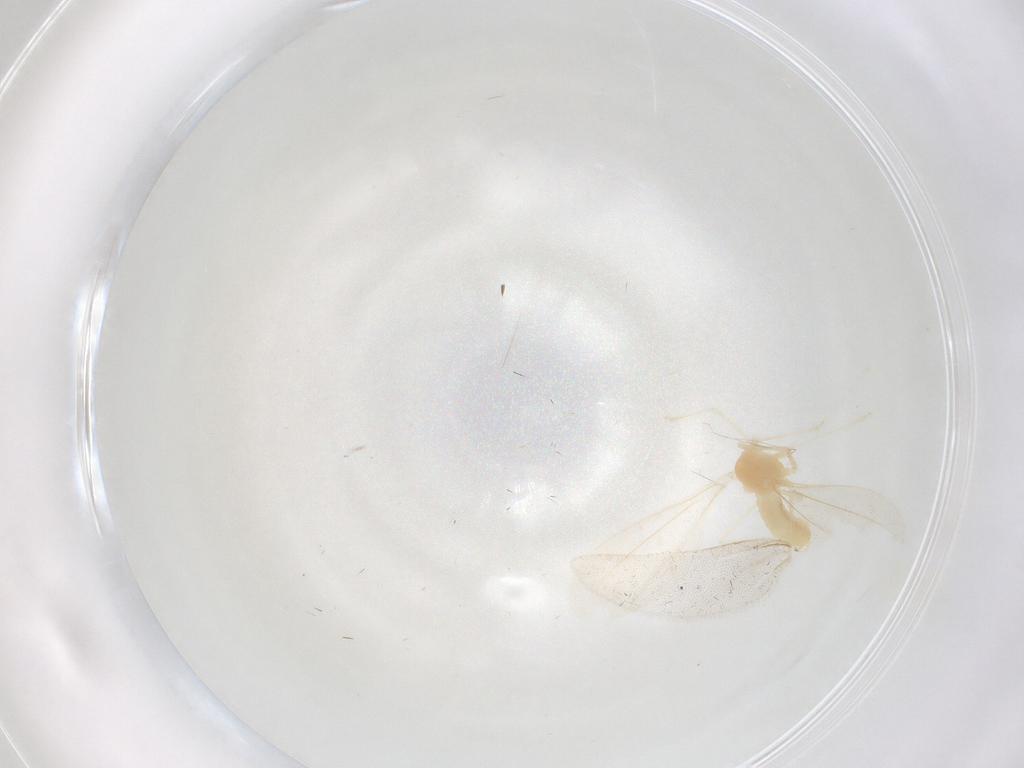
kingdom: Animalia
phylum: Arthropoda
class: Insecta
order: Diptera
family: Cecidomyiidae
